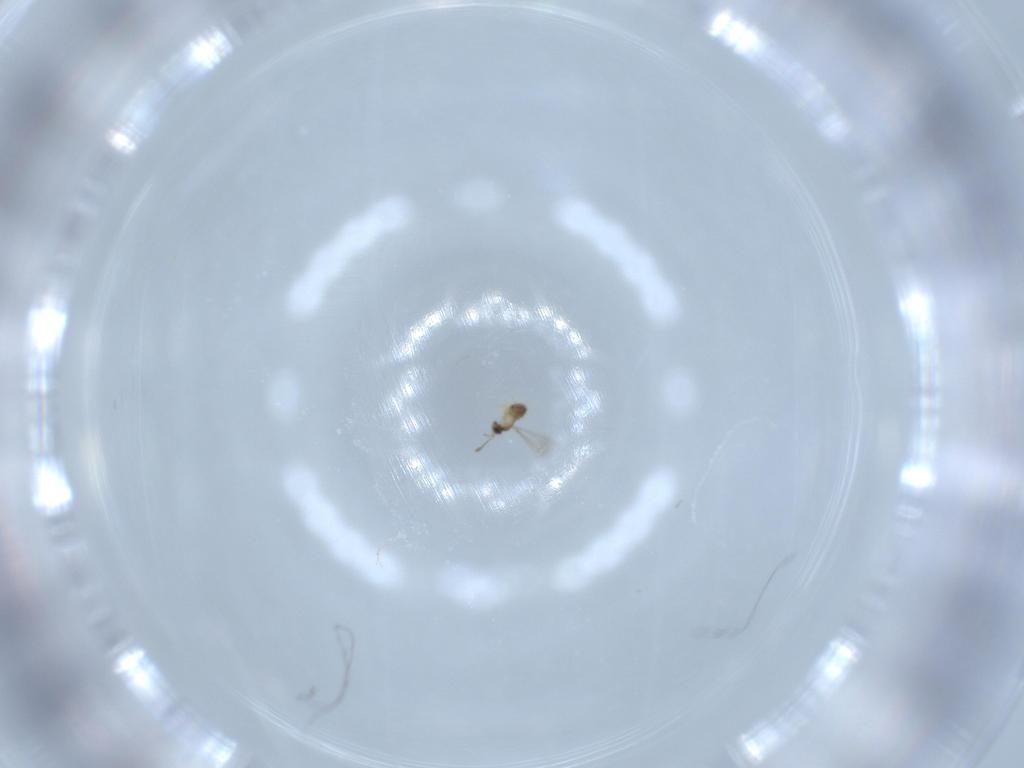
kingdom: Animalia
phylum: Arthropoda
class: Insecta
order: Hymenoptera
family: Mymaridae
